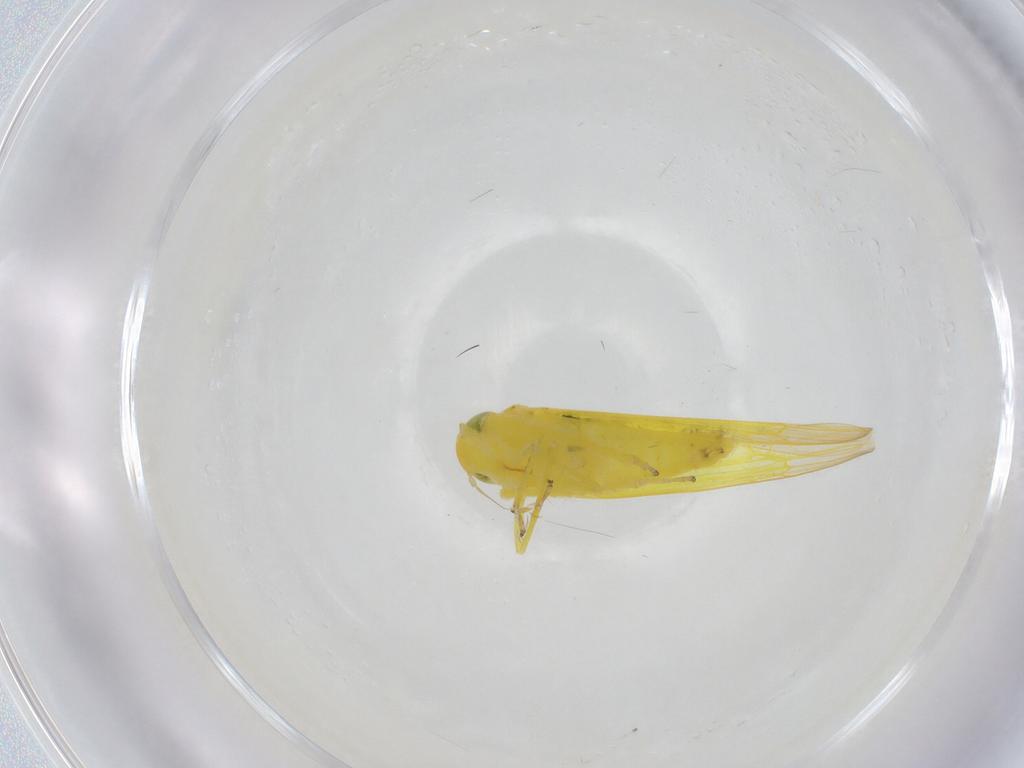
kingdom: Animalia
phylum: Arthropoda
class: Insecta
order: Hemiptera
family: Cicadellidae
